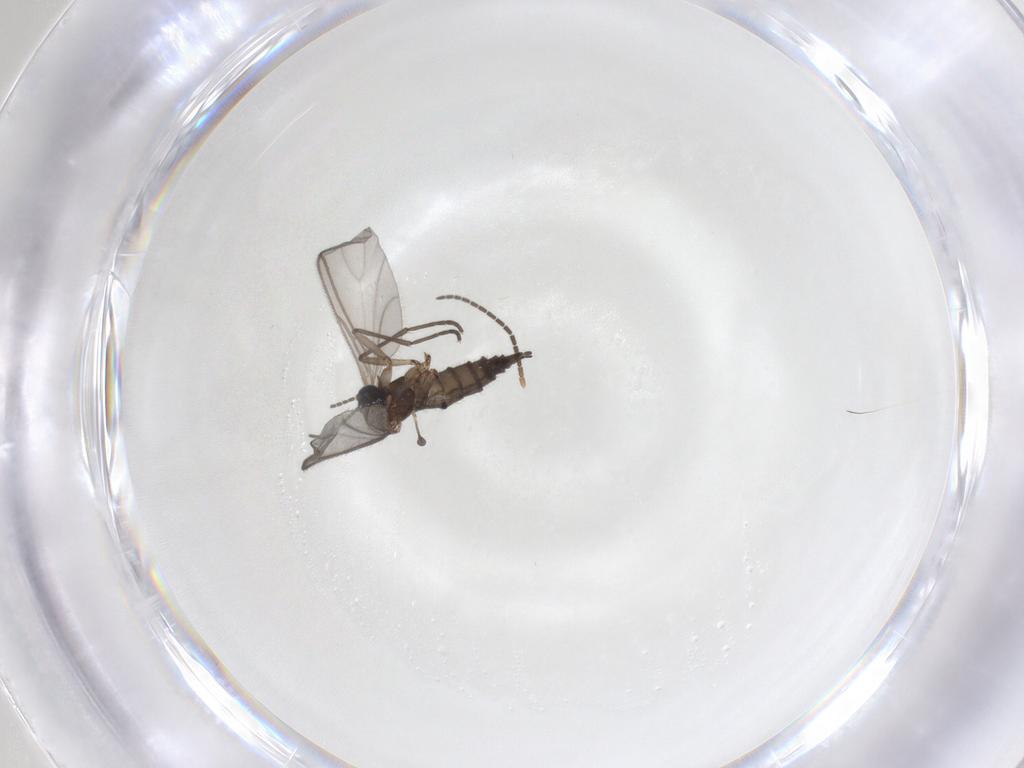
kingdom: Animalia
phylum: Arthropoda
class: Insecta
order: Diptera
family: Sciaridae
